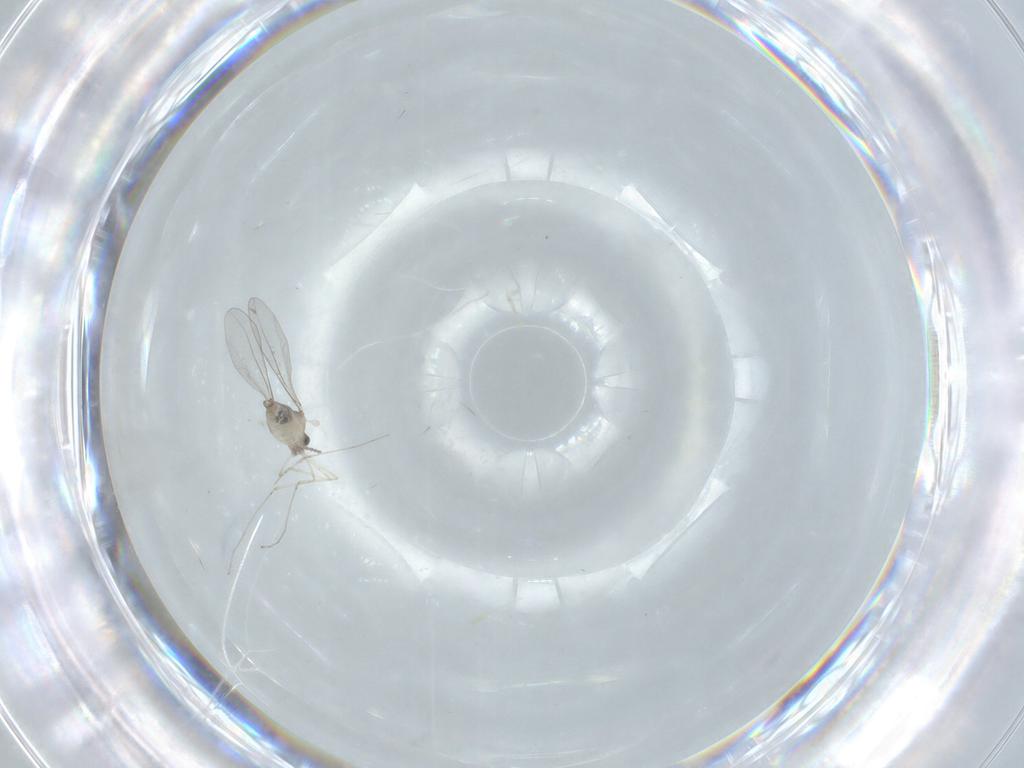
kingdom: Animalia
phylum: Arthropoda
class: Insecta
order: Diptera
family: Cecidomyiidae
